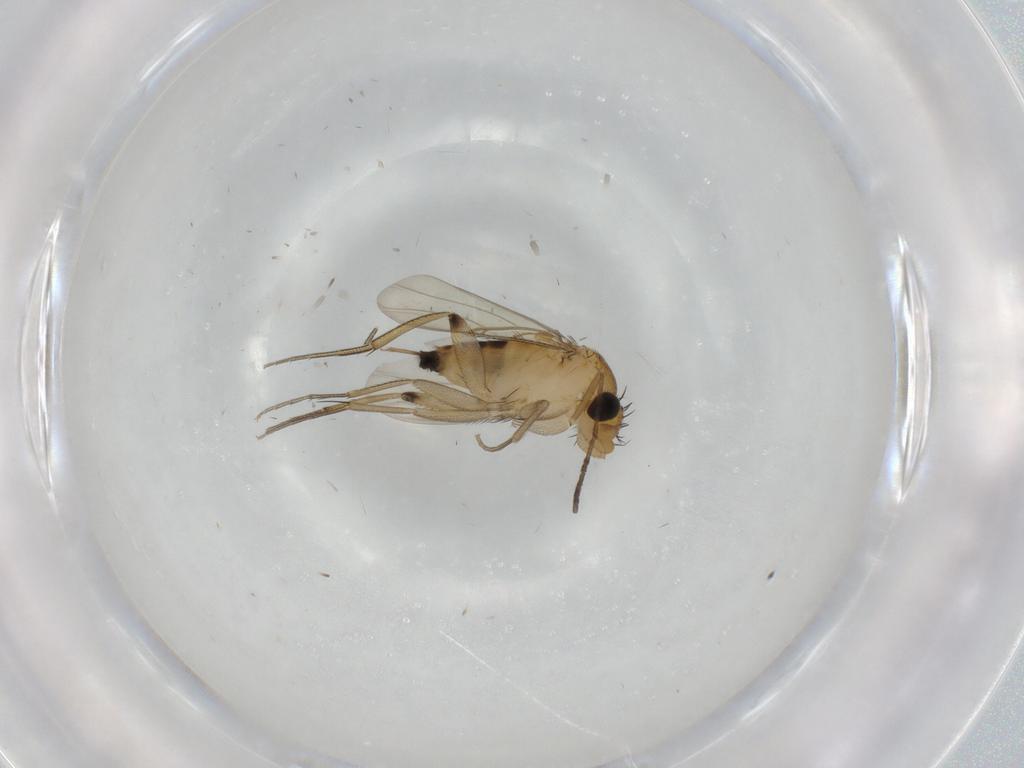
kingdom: Animalia
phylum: Arthropoda
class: Insecta
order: Diptera
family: Phoridae
